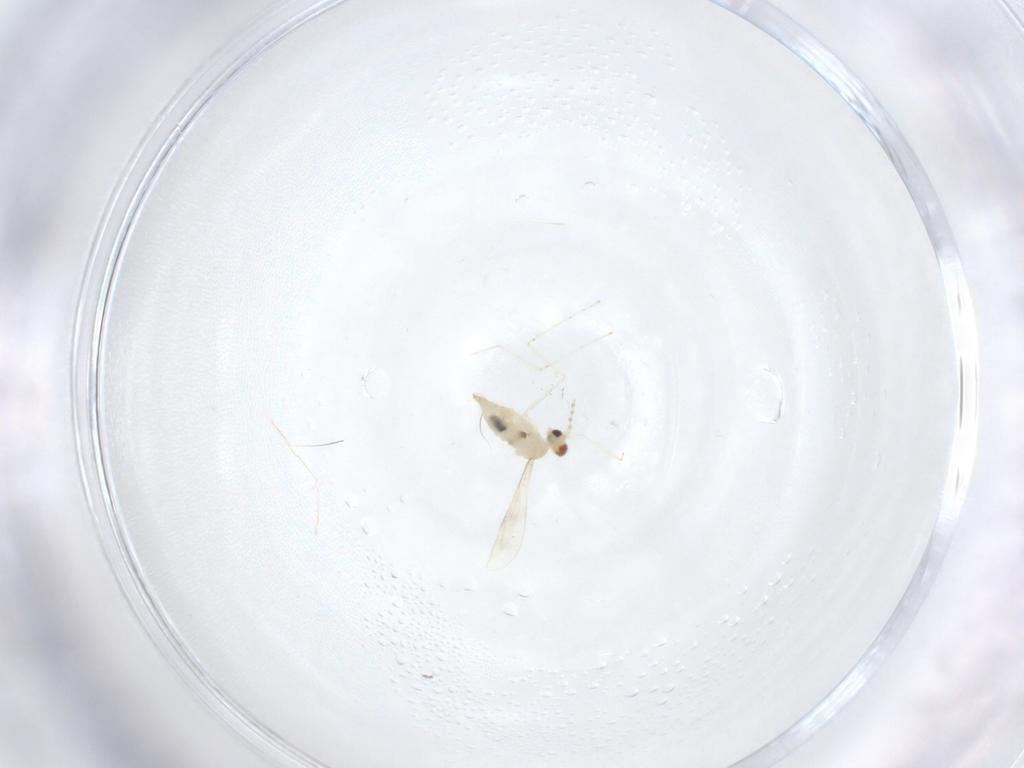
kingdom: Animalia
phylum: Arthropoda
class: Insecta
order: Diptera
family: Cecidomyiidae
